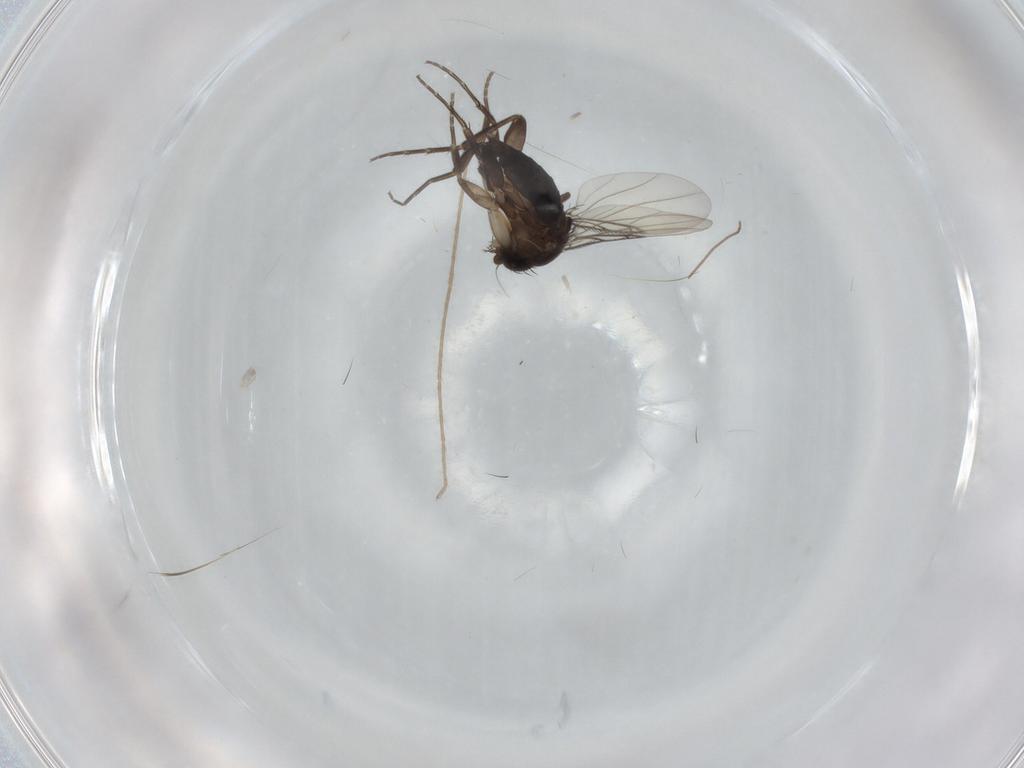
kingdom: Animalia
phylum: Arthropoda
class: Insecta
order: Diptera
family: Phoridae
